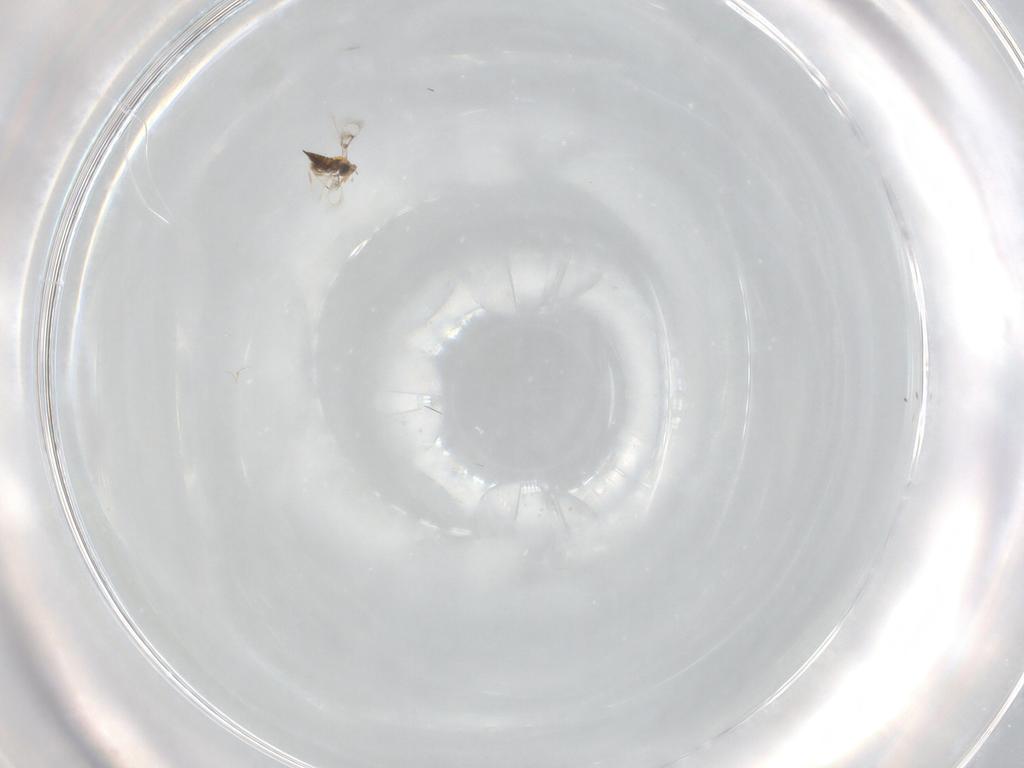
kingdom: Animalia
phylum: Arthropoda
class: Insecta
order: Hymenoptera
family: Trichogrammatidae
